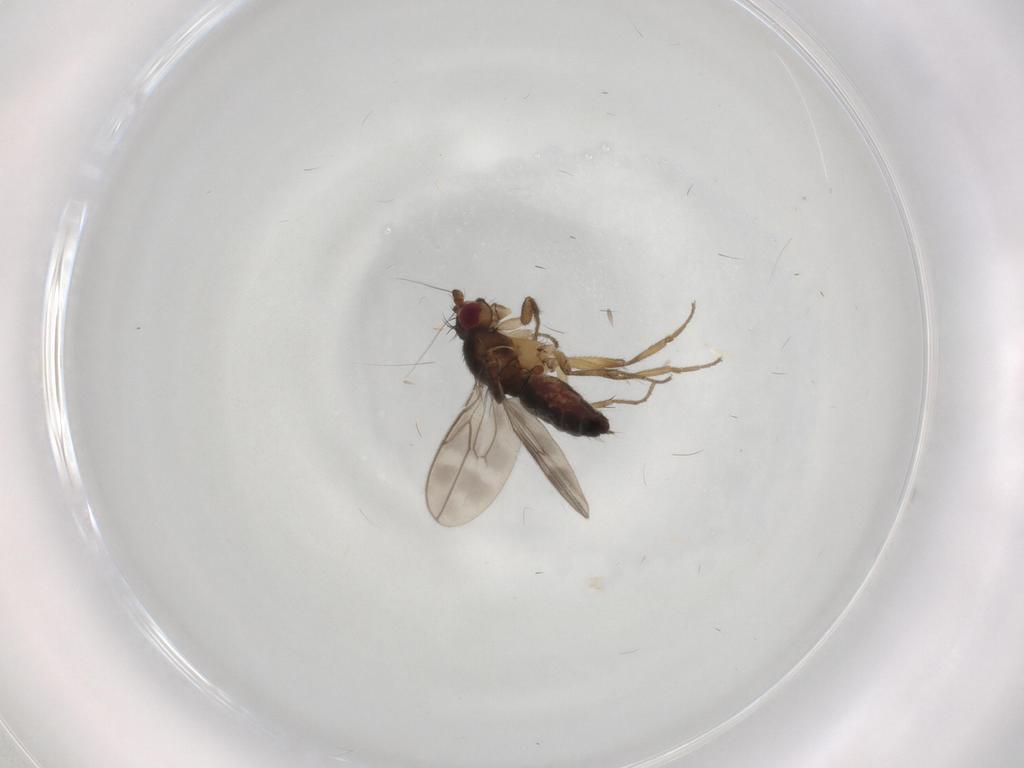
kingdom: Animalia
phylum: Arthropoda
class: Insecta
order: Diptera
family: Sphaeroceridae
